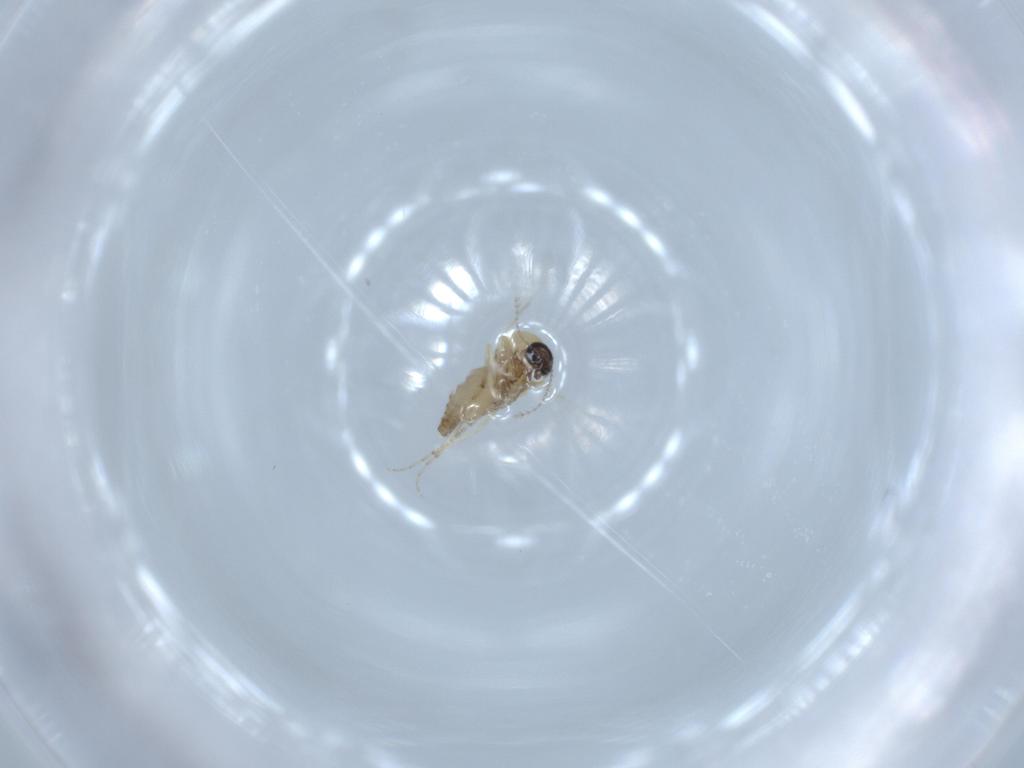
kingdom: Animalia
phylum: Arthropoda
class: Insecta
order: Diptera
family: Ceratopogonidae
